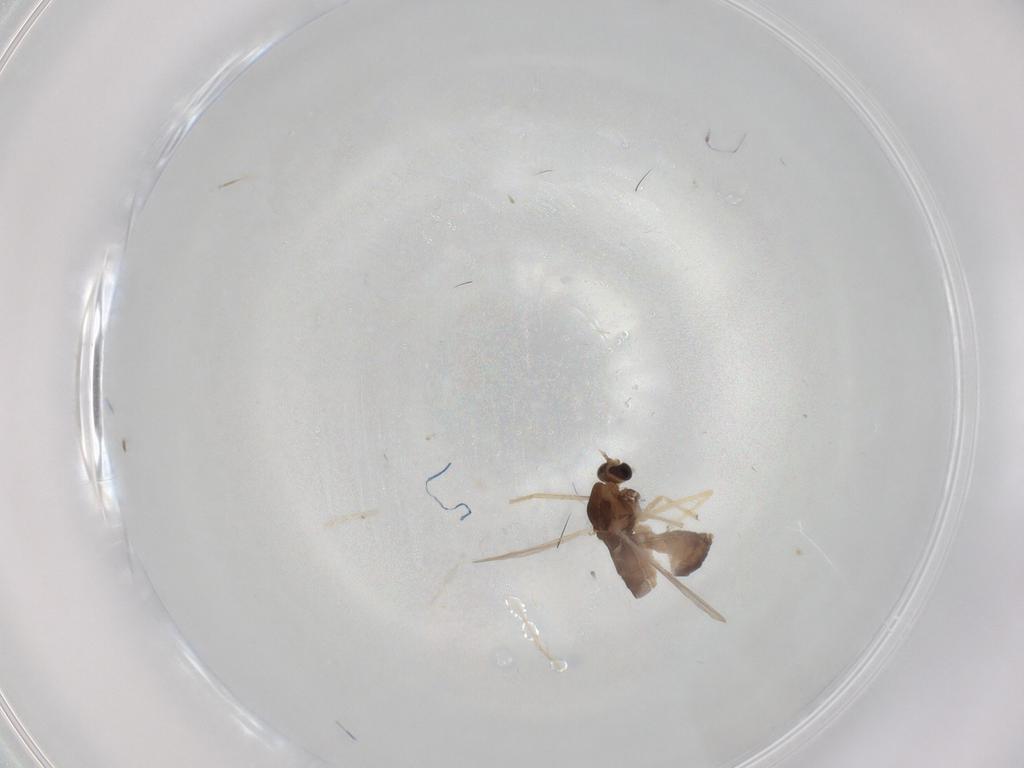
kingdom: Animalia
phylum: Arthropoda
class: Insecta
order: Diptera
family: Chironomidae
